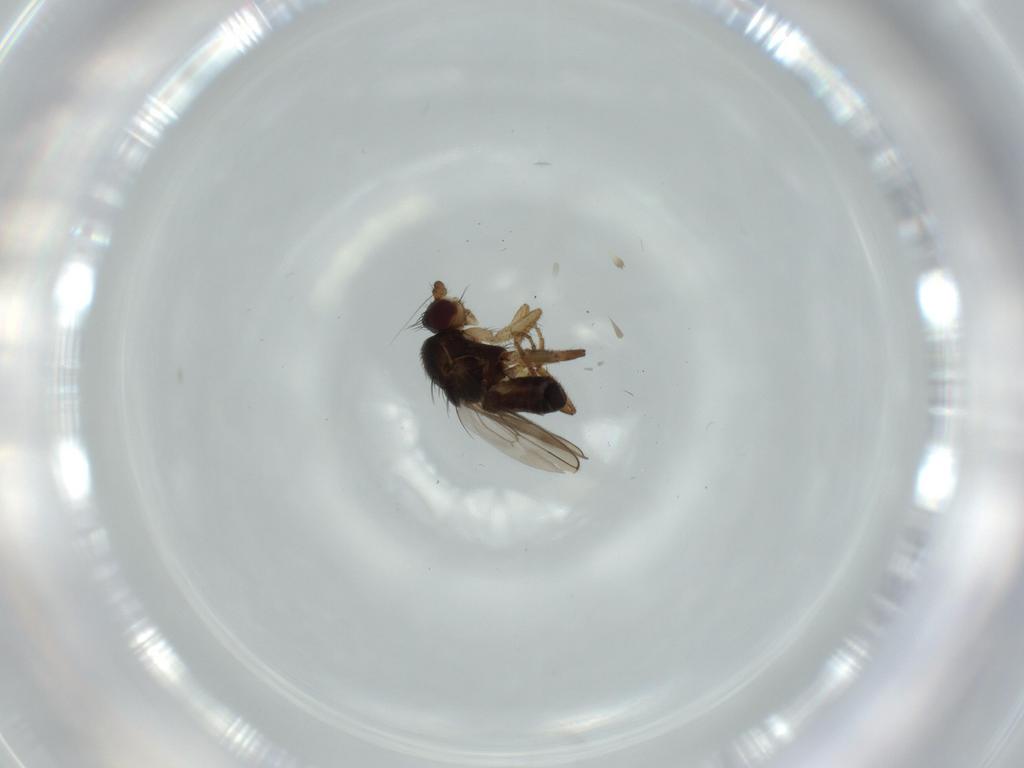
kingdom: Animalia
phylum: Arthropoda
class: Insecta
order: Diptera
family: Sphaeroceridae
